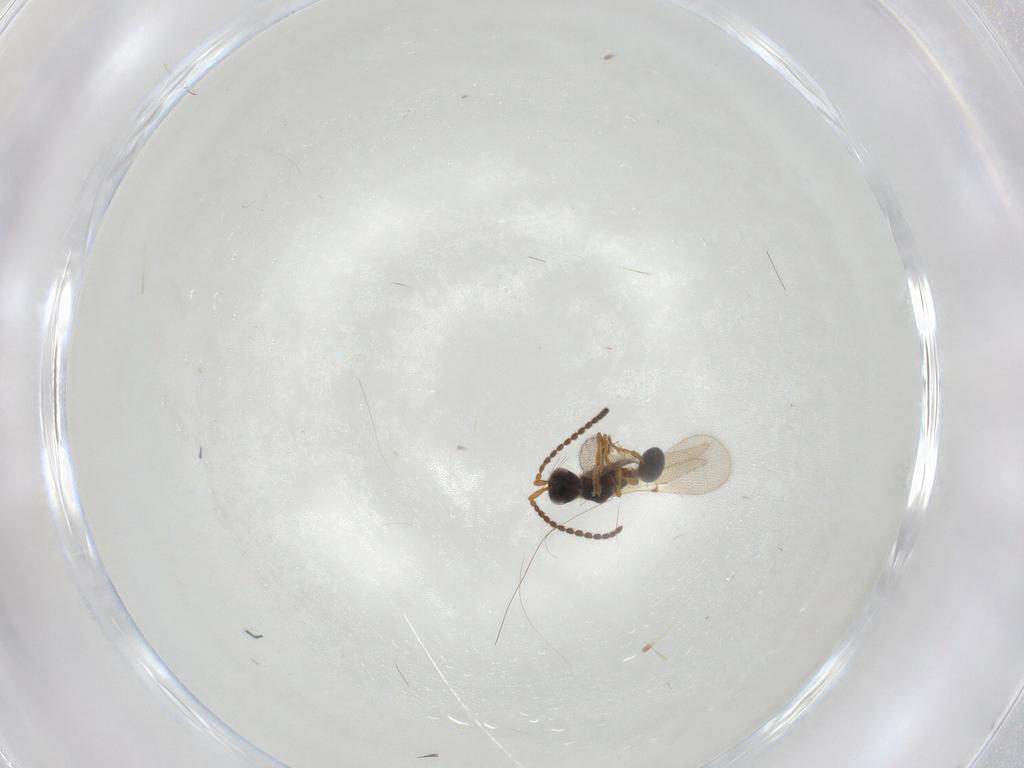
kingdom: Animalia
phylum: Arthropoda
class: Insecta
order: Hymenoptera
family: Diapriidae
